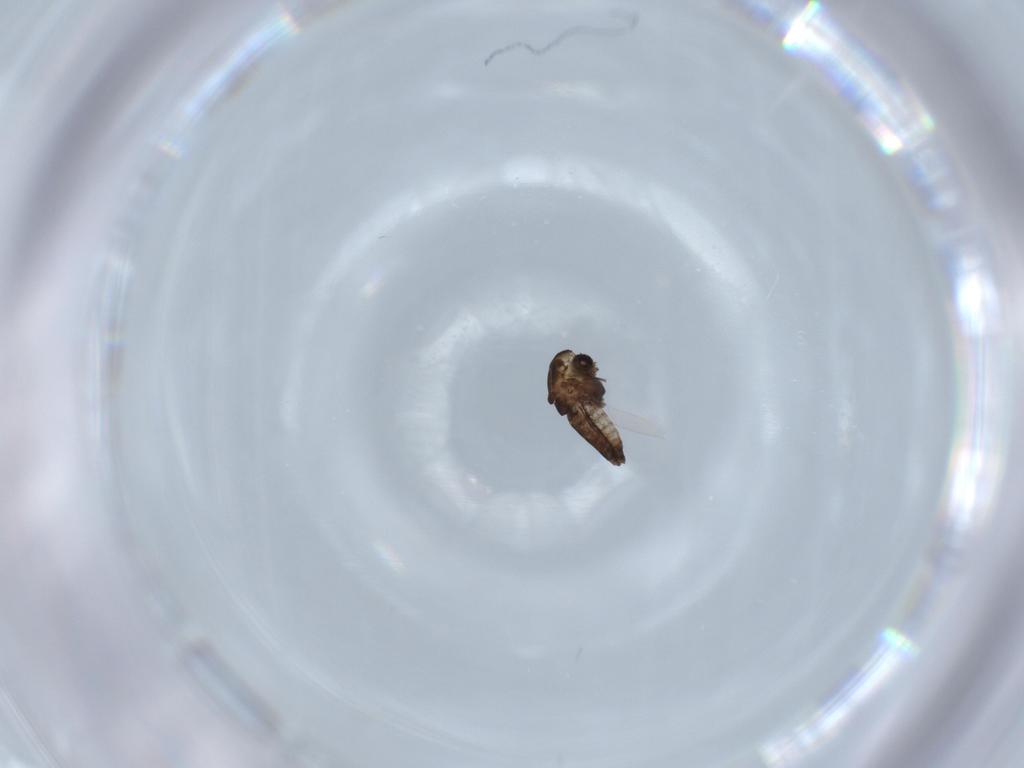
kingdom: Animalia
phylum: Arthropoda
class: Insecta
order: Diptera
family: Chironomidae
